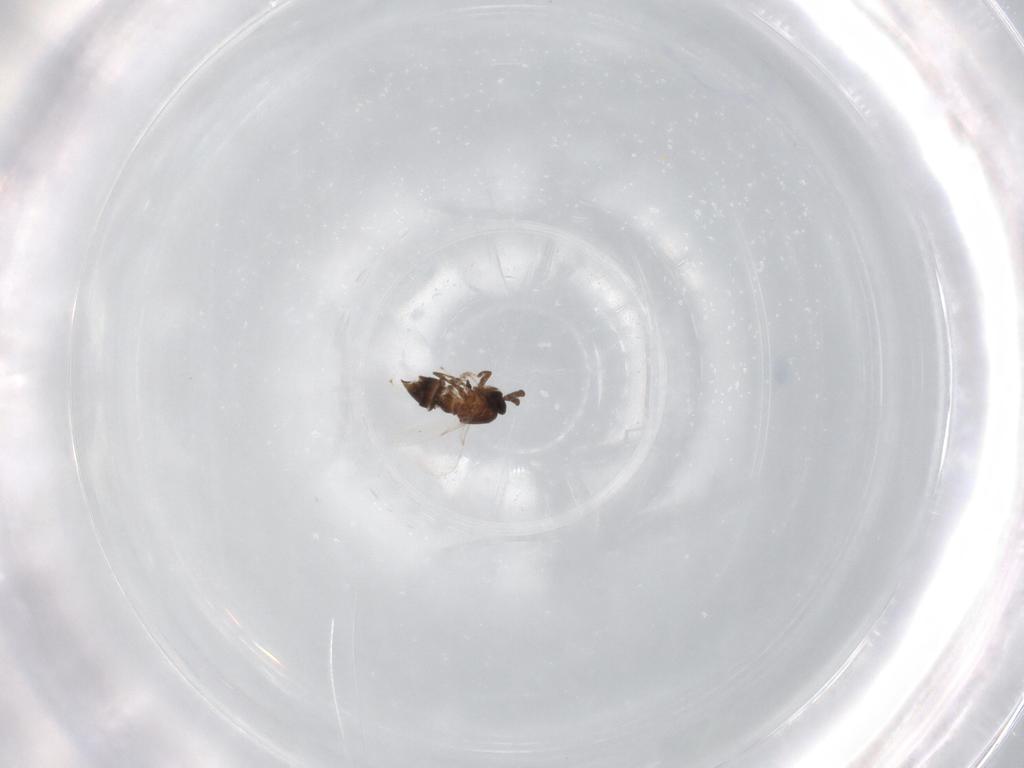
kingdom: Animalia
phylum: Arthropoda
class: Insecta
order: Diptera
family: Scatopsidae
